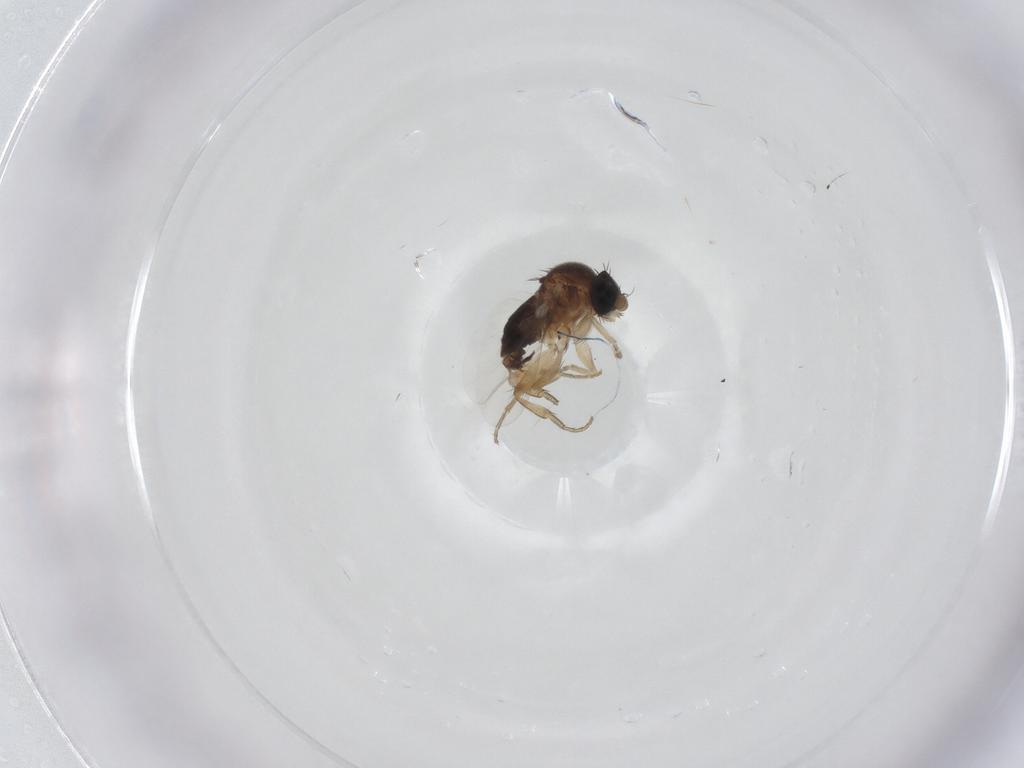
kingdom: Animalia
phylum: Arthropoda
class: Insecta
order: Diptera
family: Phoridae
